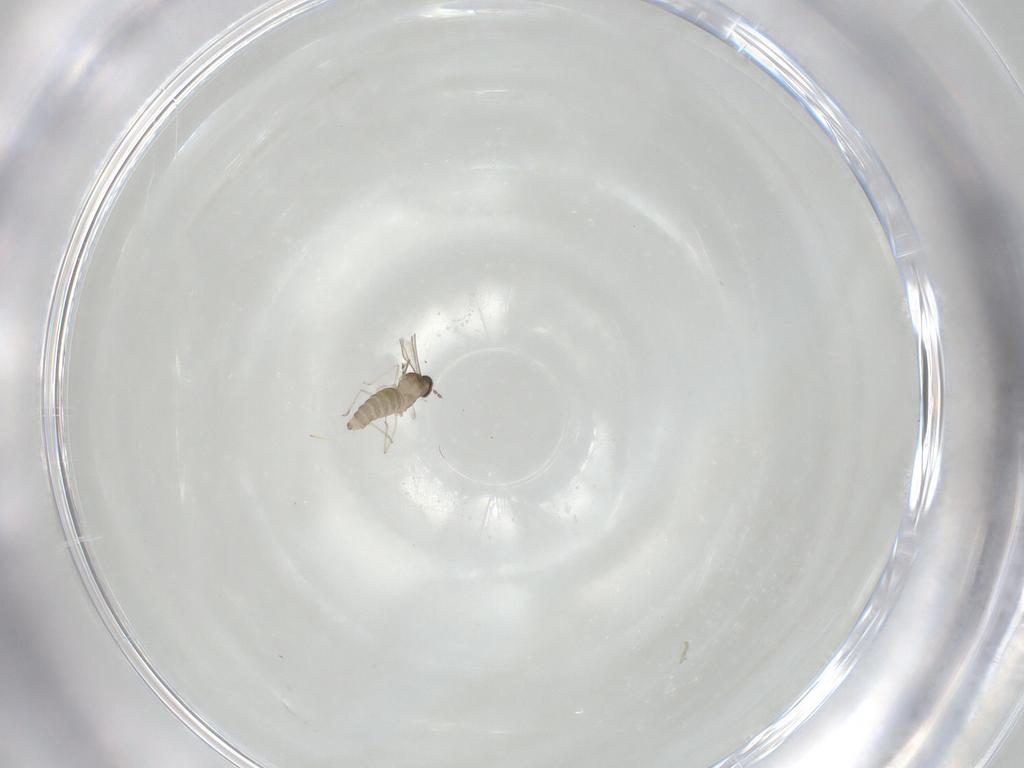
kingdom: Animalia
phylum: Arthropoda
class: Insecta
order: Diptera
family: Cecidomyiidae
